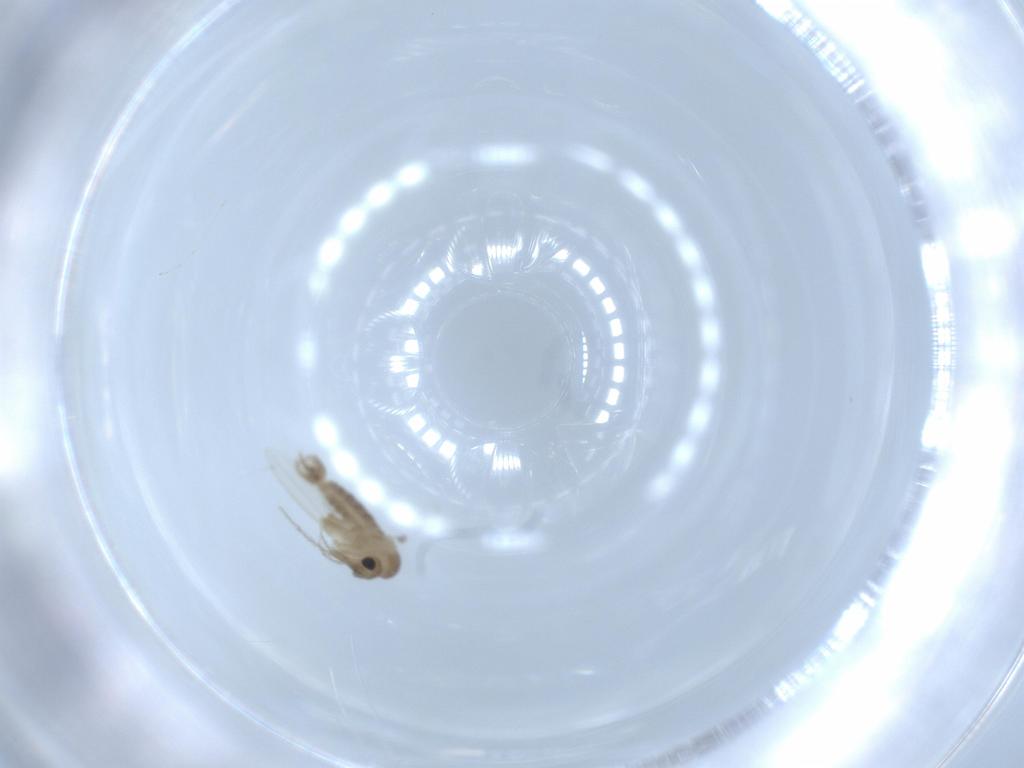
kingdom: Animalia
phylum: Arthropoda
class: Insecta
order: Diptera
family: Psychodidae
